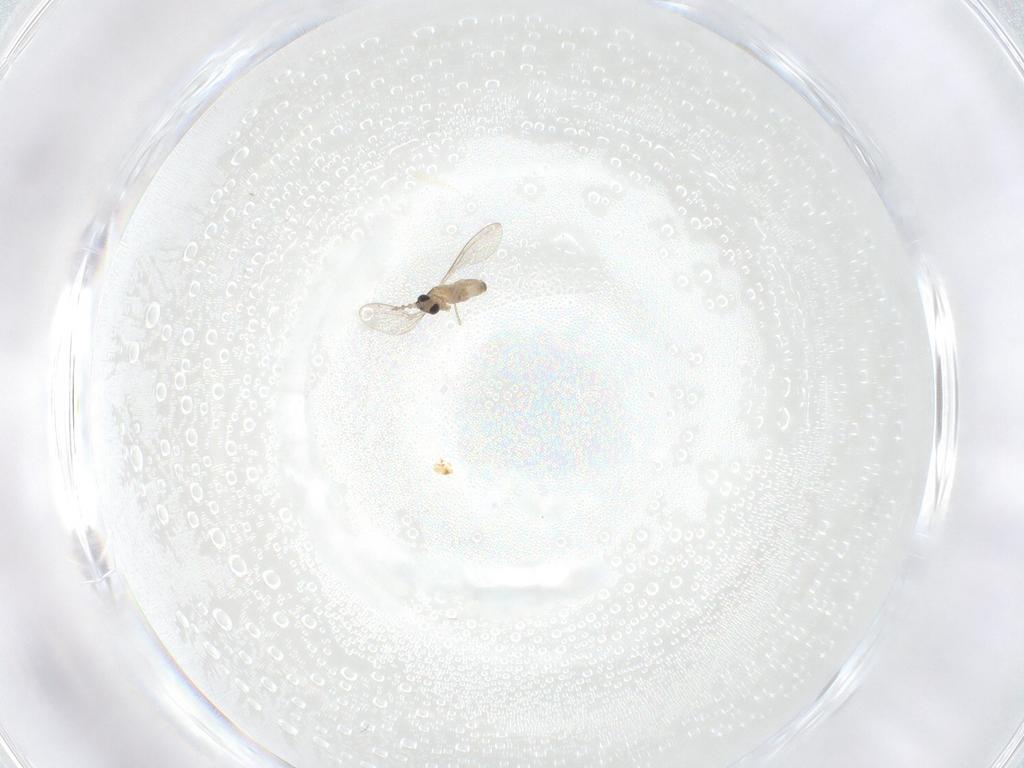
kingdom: Animalia
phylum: Arthropoda
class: Insecta
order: Diptera
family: Cecidomyiidae
